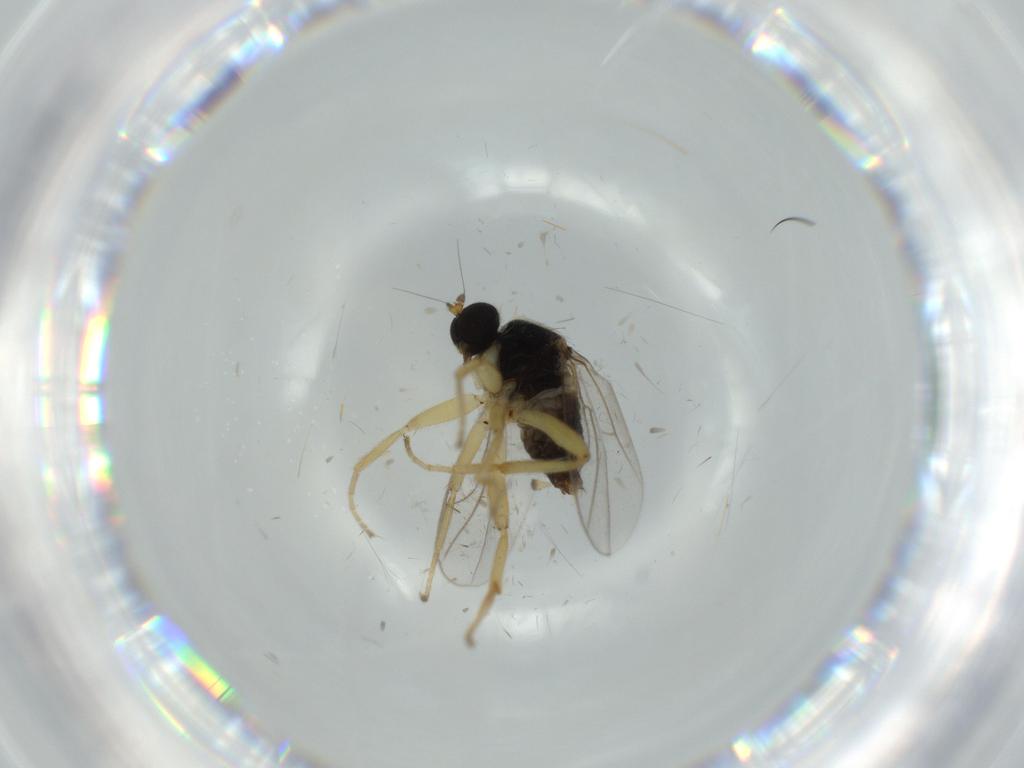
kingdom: Animalia
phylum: Arthropoda
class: Insecta
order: Diptera
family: Hybotidae
